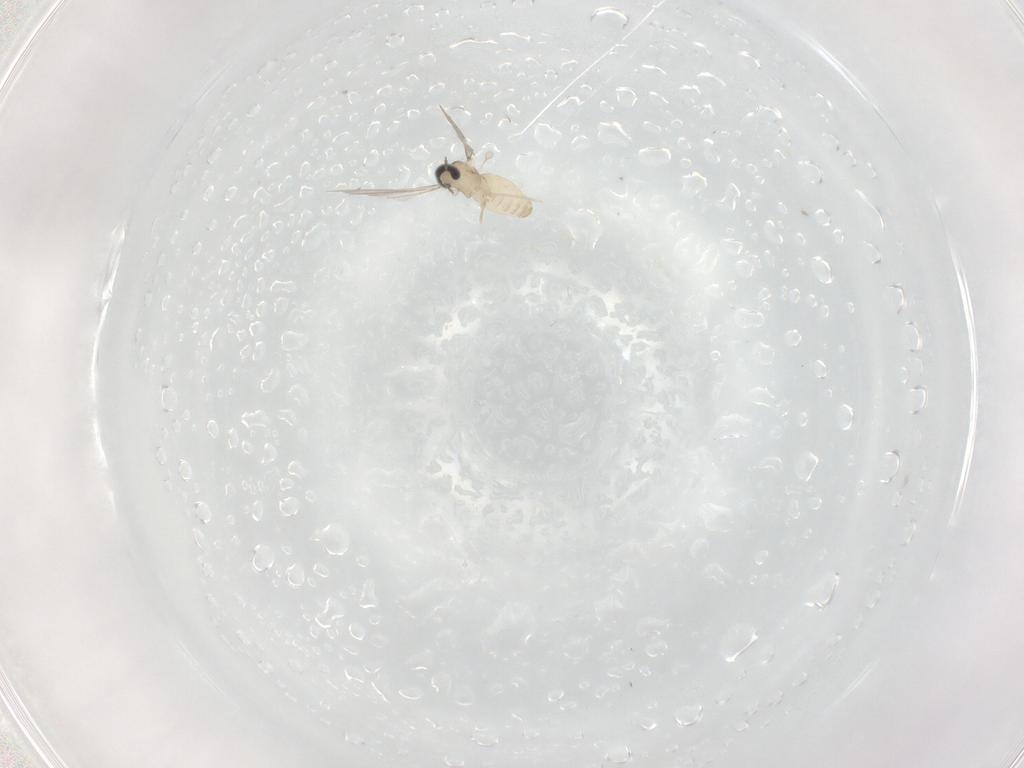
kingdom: Animalia
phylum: Arthropoda
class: Insecta
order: Diptera
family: Cecidomyiidae
